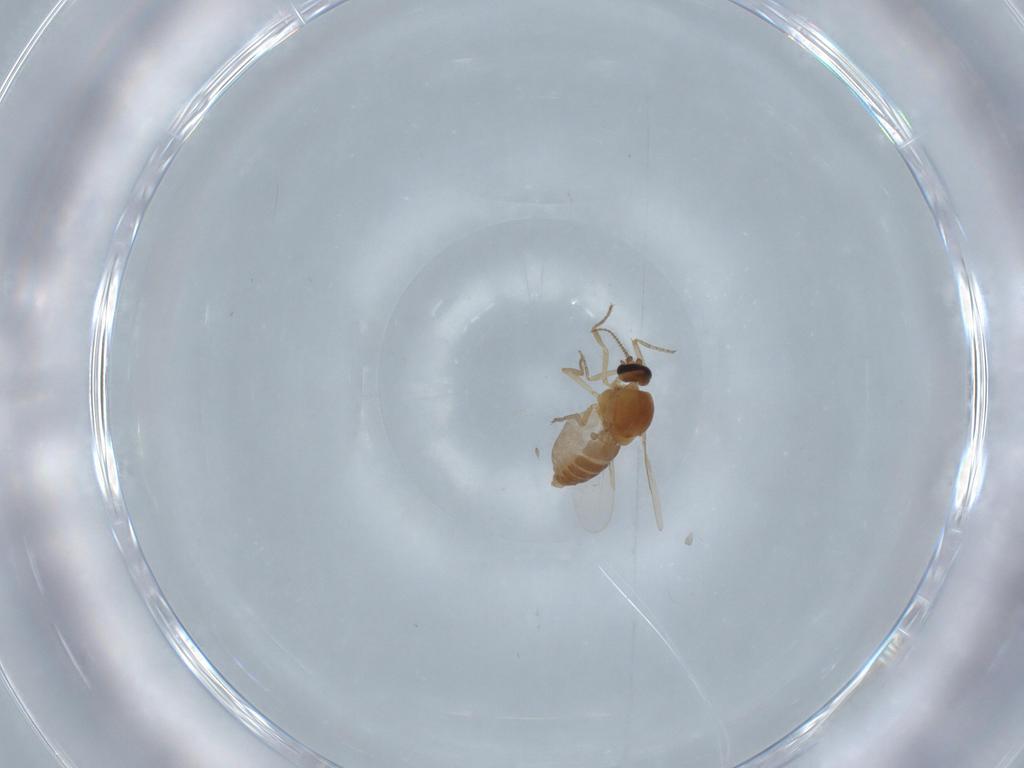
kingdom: Animalia
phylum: Arthropoda
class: Insecta
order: Diptera
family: Ceratopogonidae
